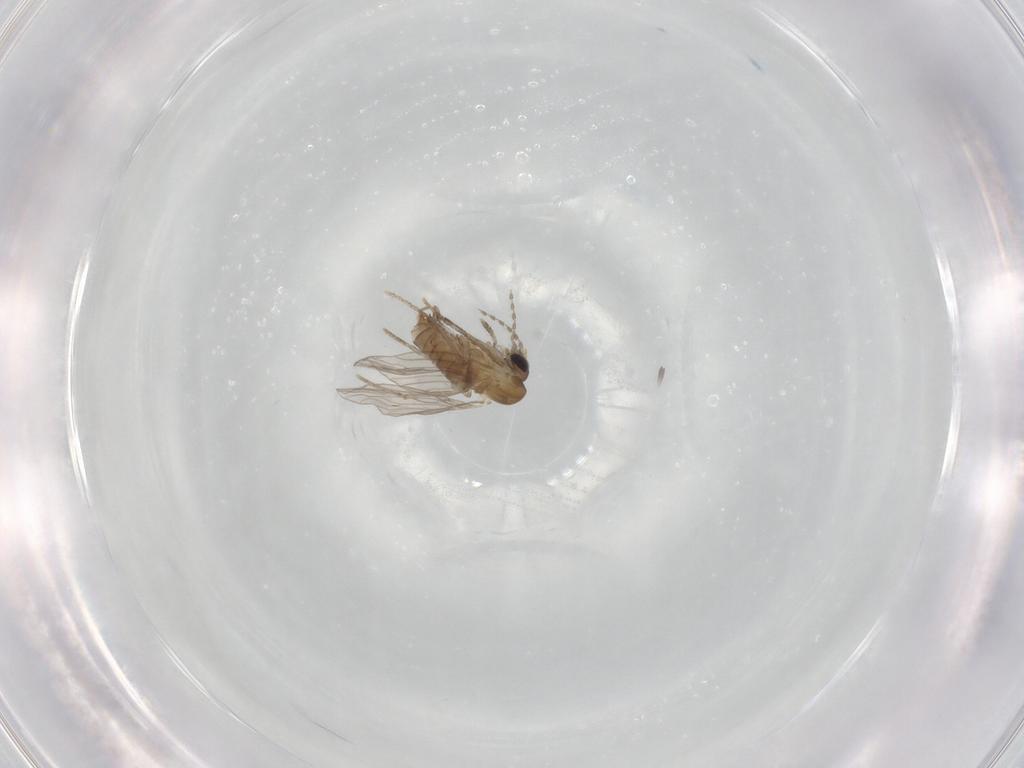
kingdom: Animalia
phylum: Arthropoda
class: Insecta
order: Diptera
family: Psychodidae
